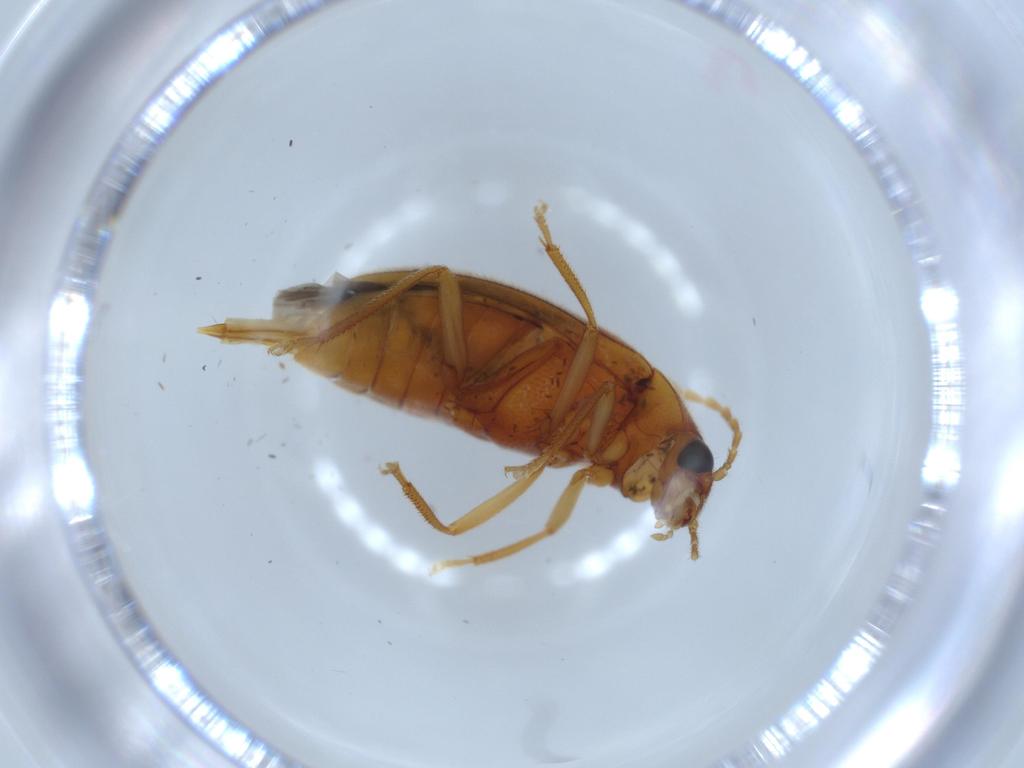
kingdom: Animalia
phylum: Arthropoda
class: Insecta
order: Coleoptera
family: Ptilodactylidae
